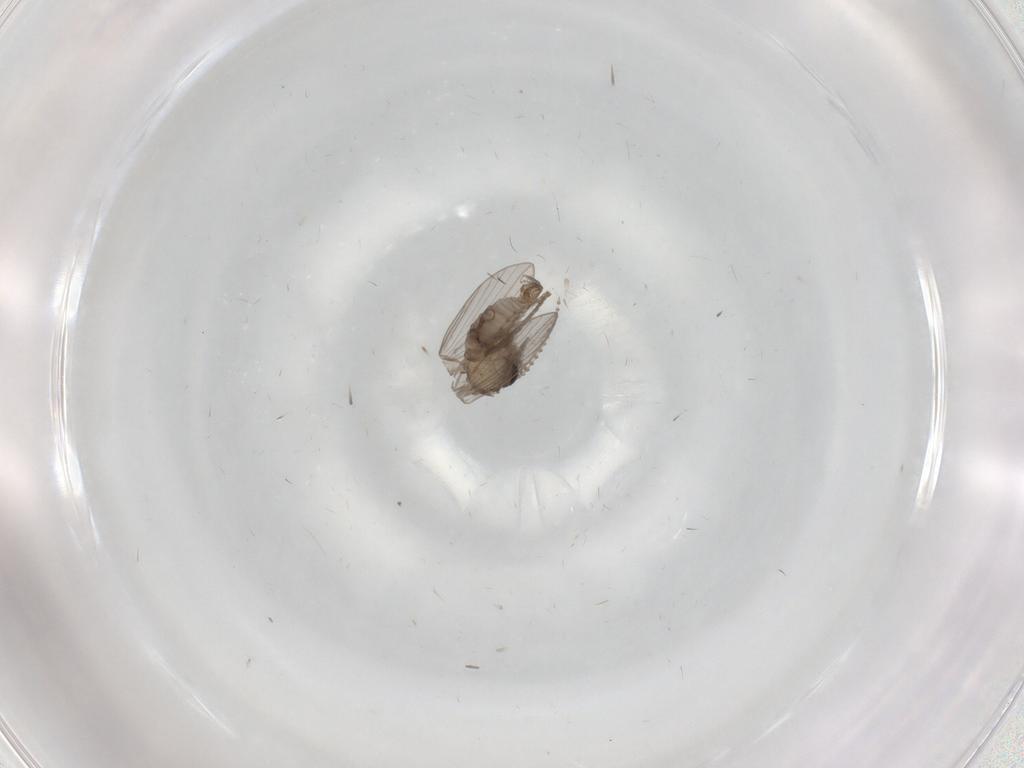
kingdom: Animalia
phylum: Arthropoda
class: Insecta
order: Diptera
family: Psychodidae
